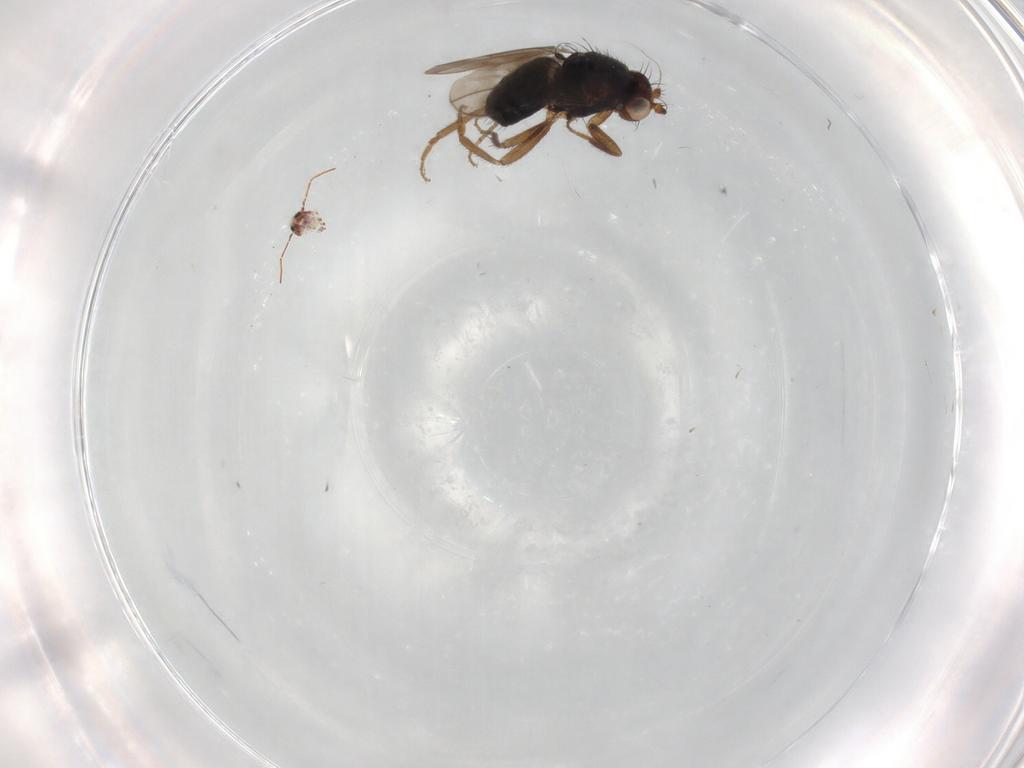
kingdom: Animalia
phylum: Arthropoda
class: Insecta
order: Diptera
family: Sphaeroceridae
